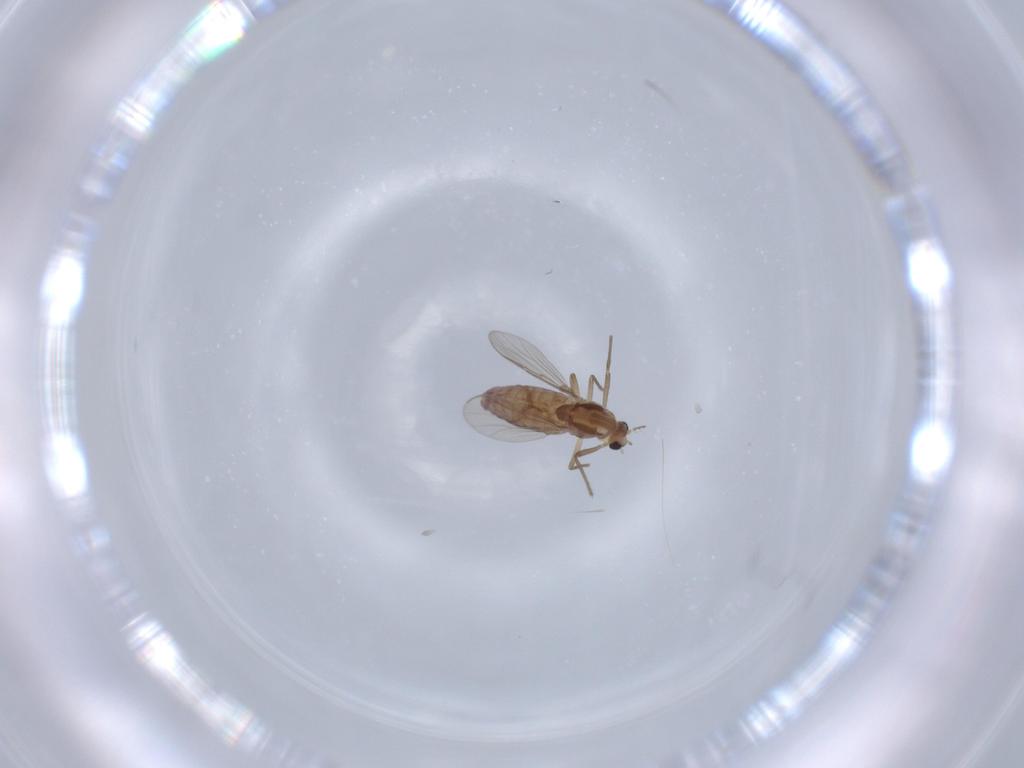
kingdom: Animalia
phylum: Arthropoda
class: Insecta
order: Diptera
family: Chironomidae
